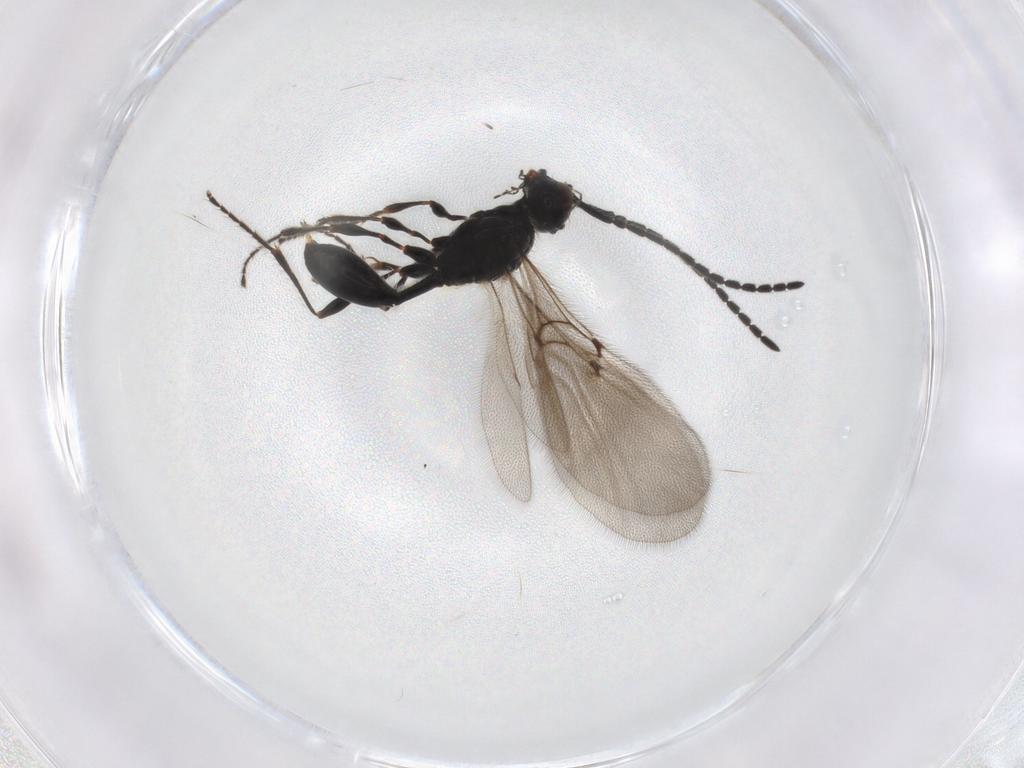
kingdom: Animalia
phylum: Arthropoda
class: Insecta
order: Hymenoptera
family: Diapriidae
